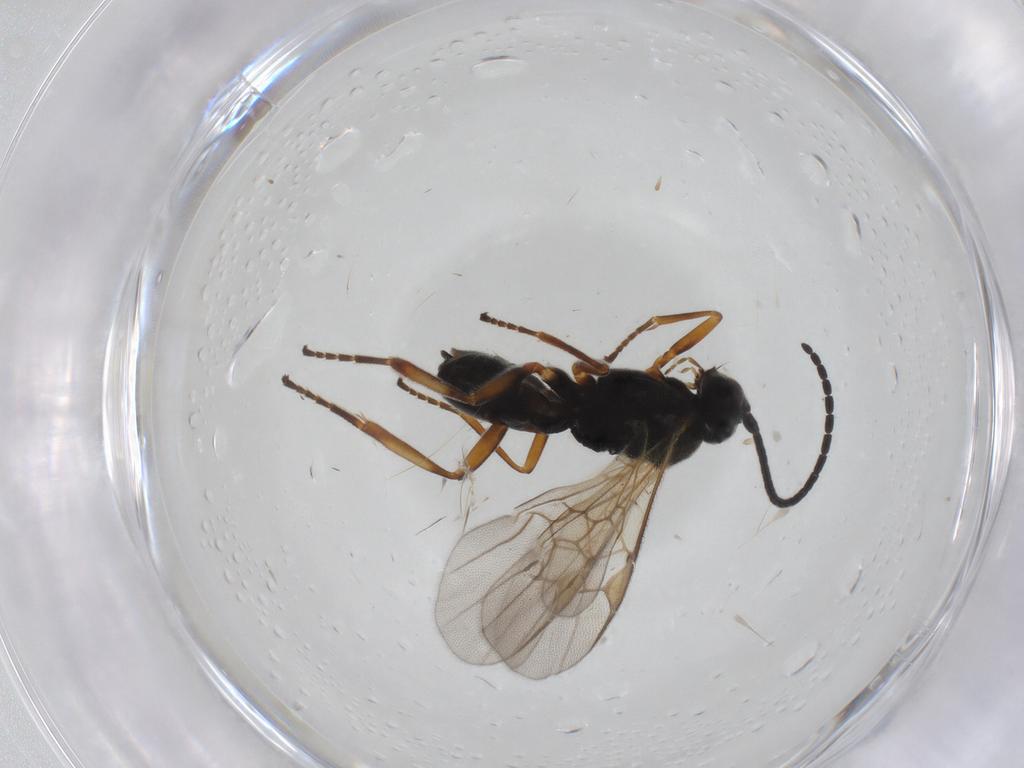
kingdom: Animalia
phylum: Arthropoda
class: Insecta
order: Hymenoptera
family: Braconidae
